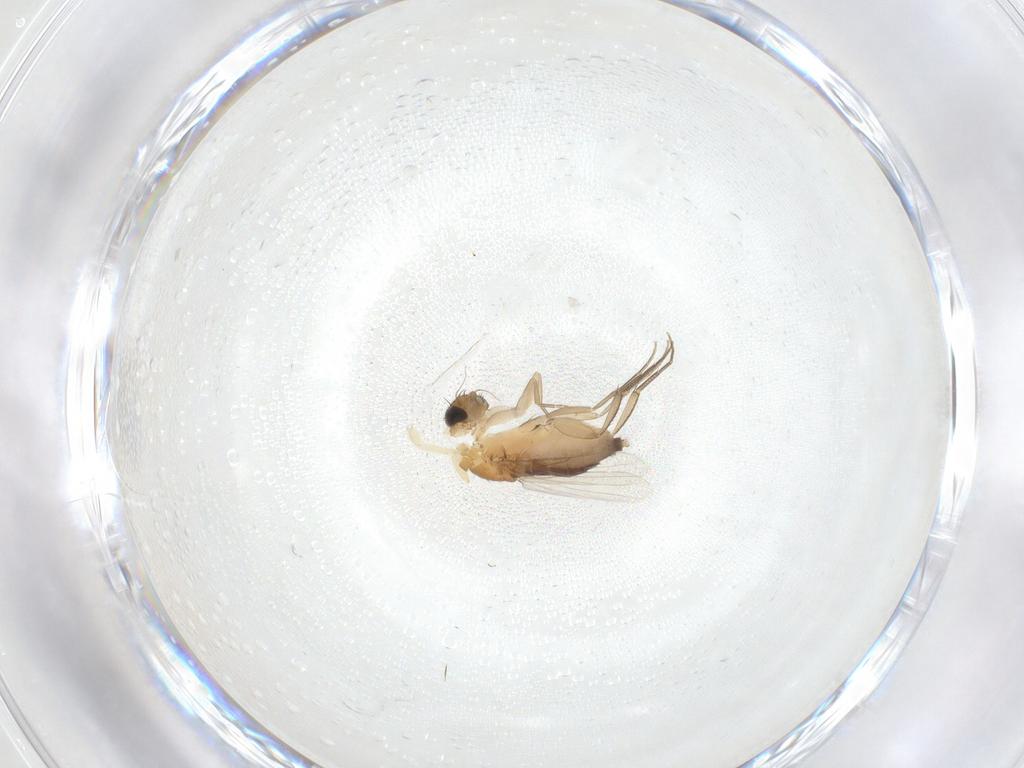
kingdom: Animalia
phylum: Arthropoda
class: Insecta
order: Diptera
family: Phoridae
